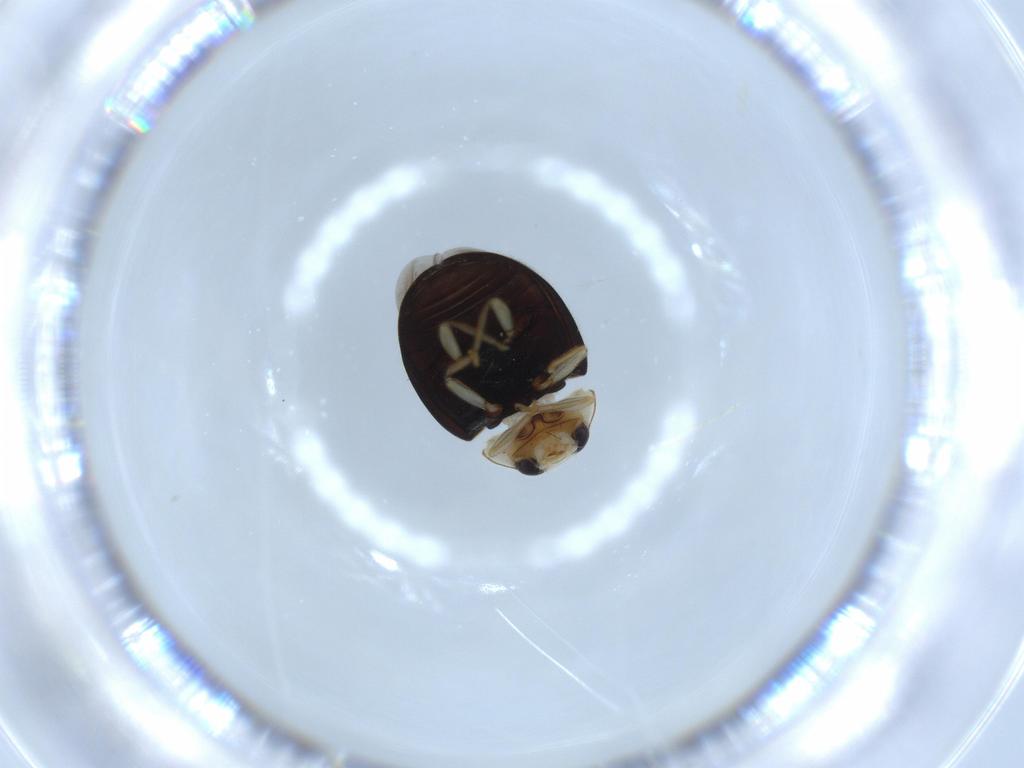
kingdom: Animalia
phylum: Arthropoda
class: Insecta
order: Coleoptera
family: Coccinellidae
